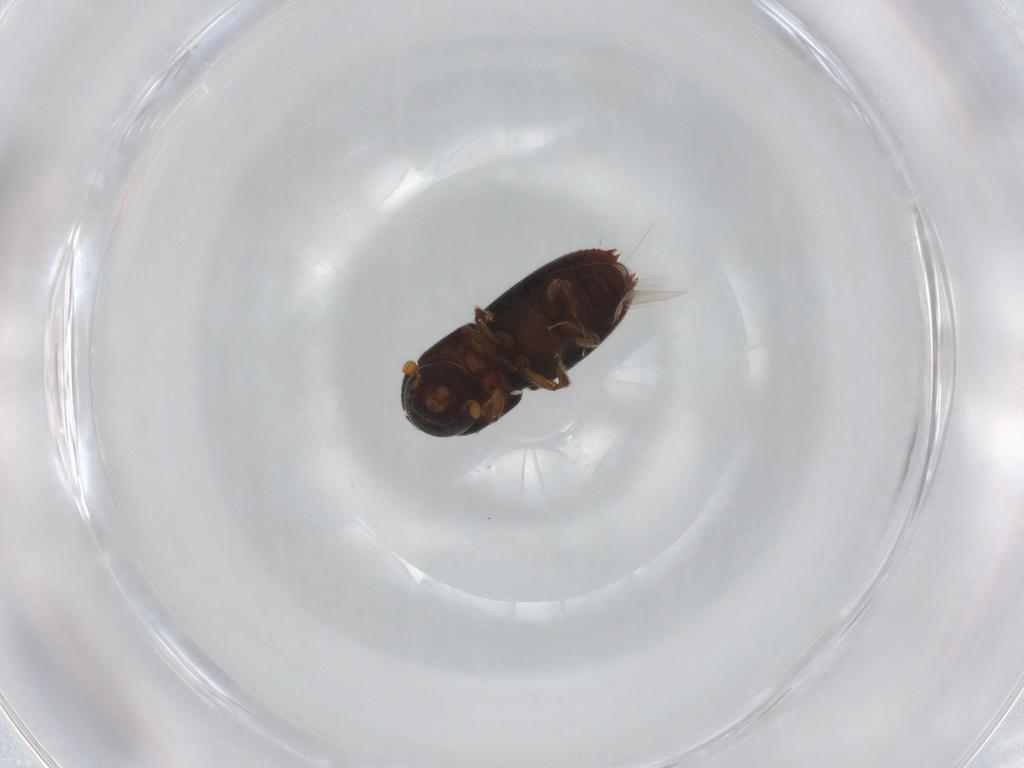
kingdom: Animalia
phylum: Arthropoda
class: Insecta
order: Coleoptera
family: Curculionidae
